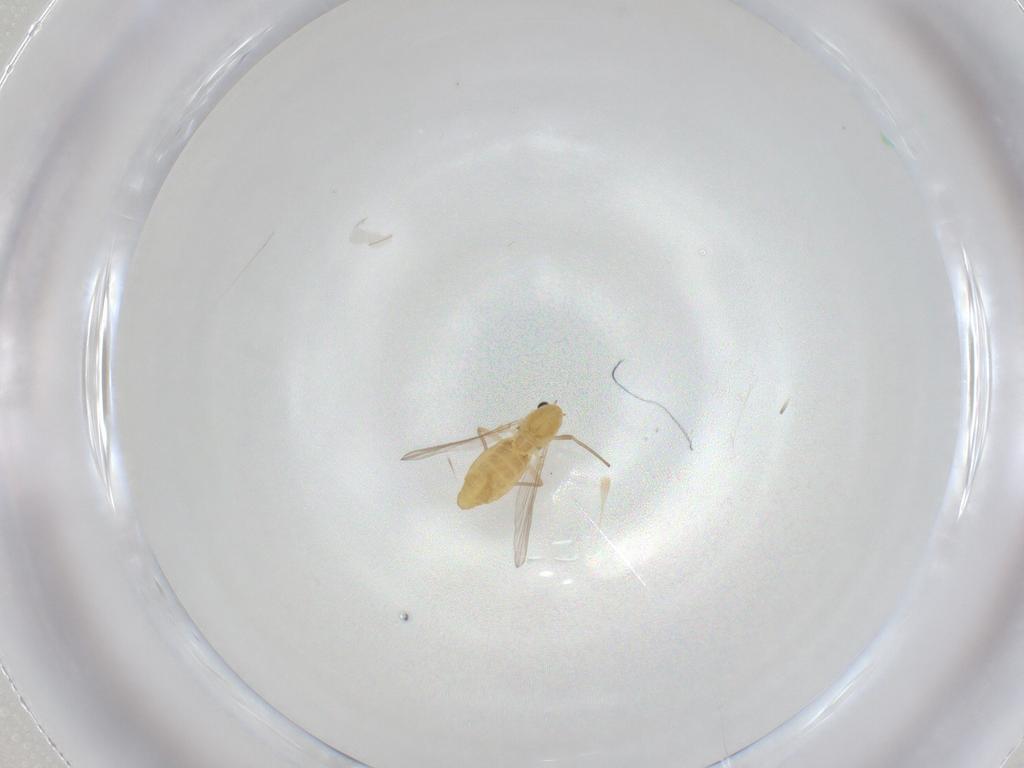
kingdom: Animalia
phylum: Arthropoda
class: Insecta
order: Diptera
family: Chironomidae
